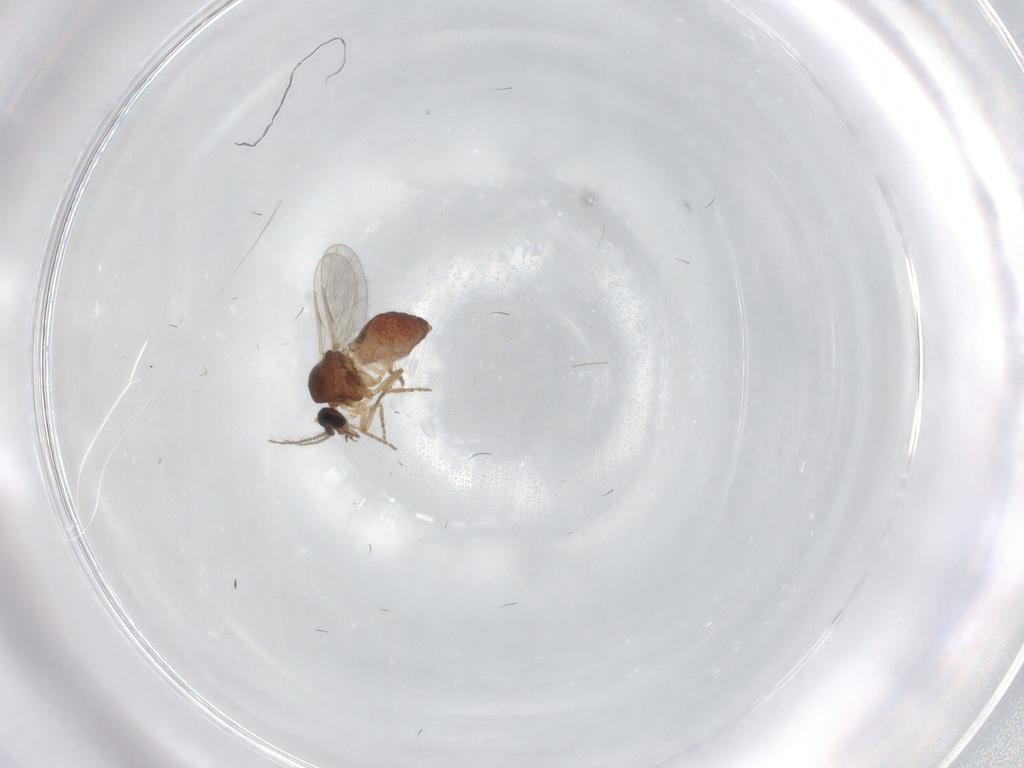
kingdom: Animalia
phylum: Arthropoda
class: Insecta
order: Diptera
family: Ceratopogonidae
